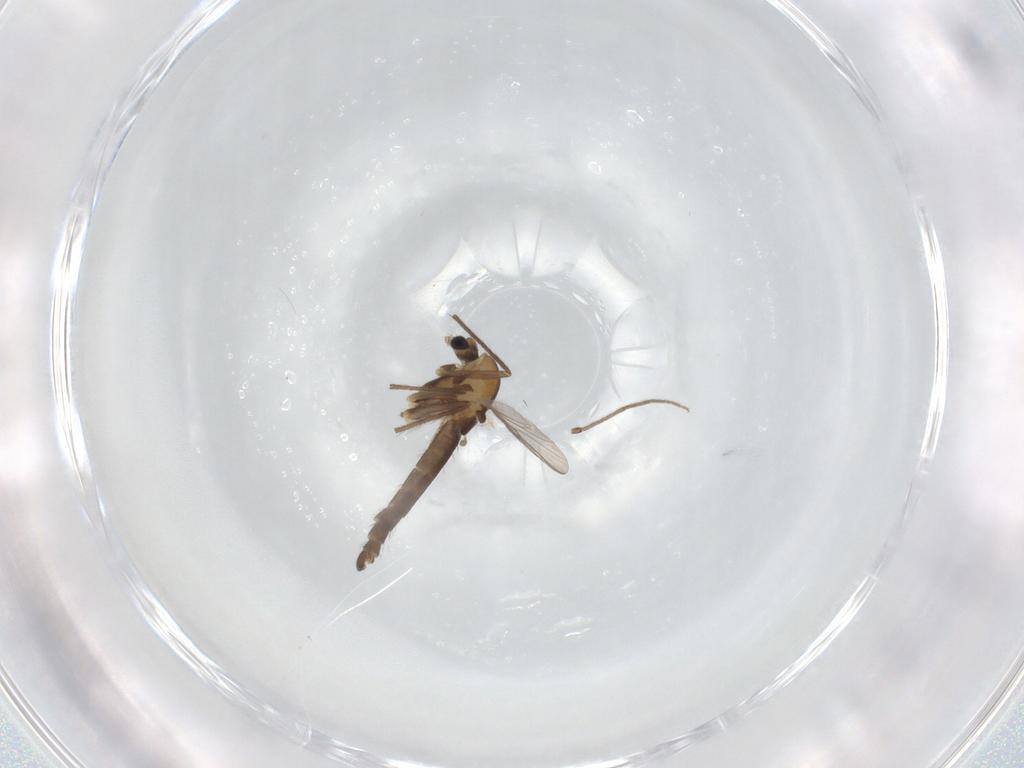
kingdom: Animalia
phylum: Arthropoda
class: Insecta
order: Diptera
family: Chironomidae
